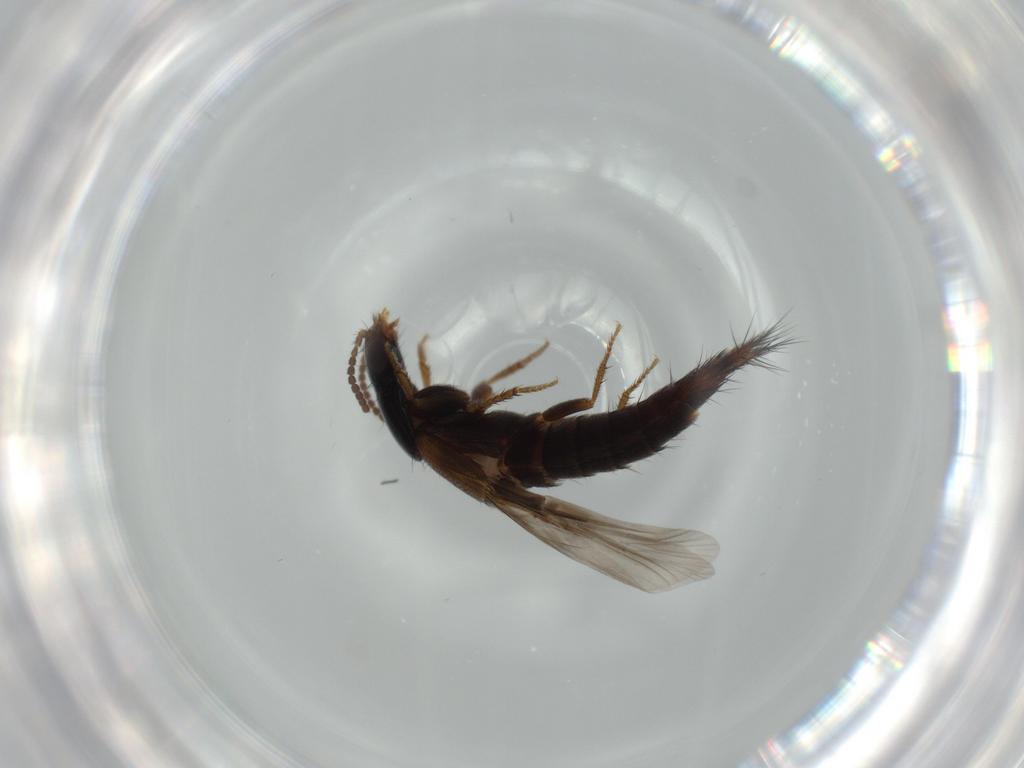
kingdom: Animalia
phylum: Arthropoda
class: Insecta
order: Coleoptera
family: Staphylinidae
